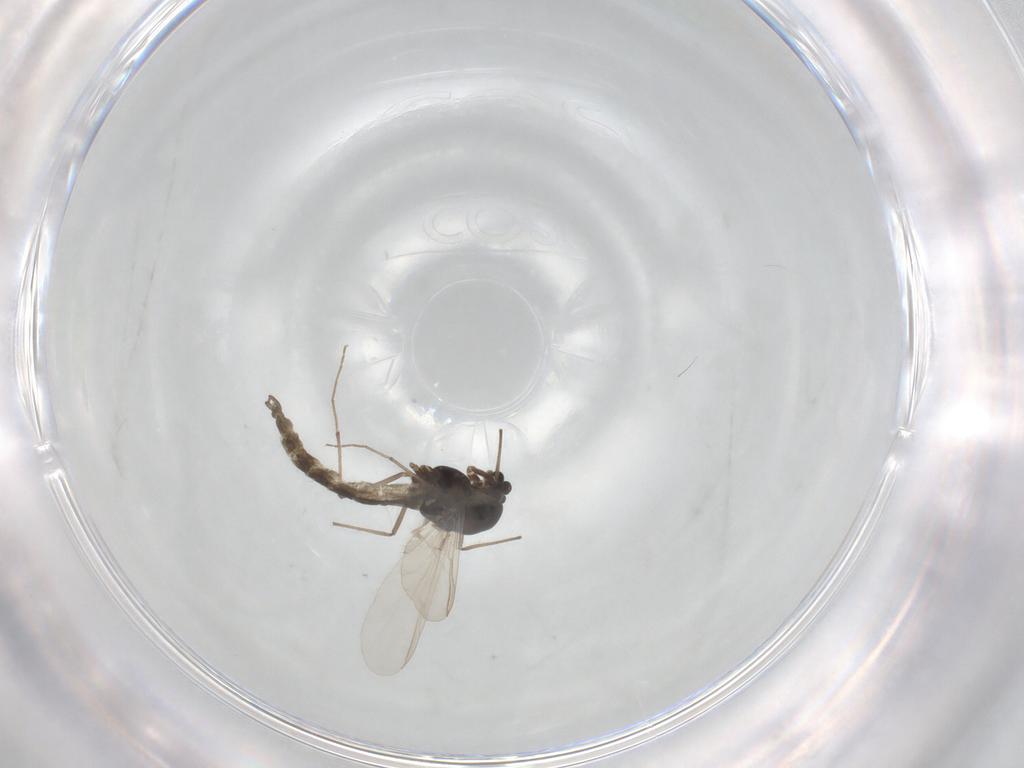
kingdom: Animalia
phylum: Arthropoda
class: Insecta
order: Diptera
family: Chironomidae
